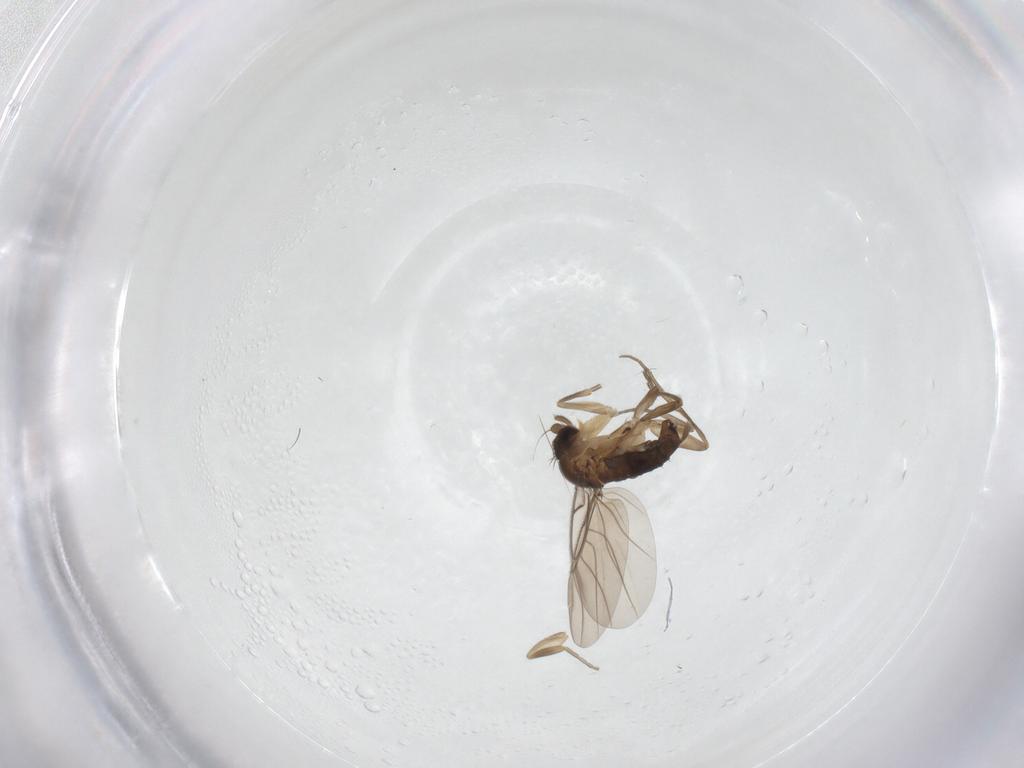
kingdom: Animalia
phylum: Arthropoda
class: Insecta
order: Diptera
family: Phoridae
